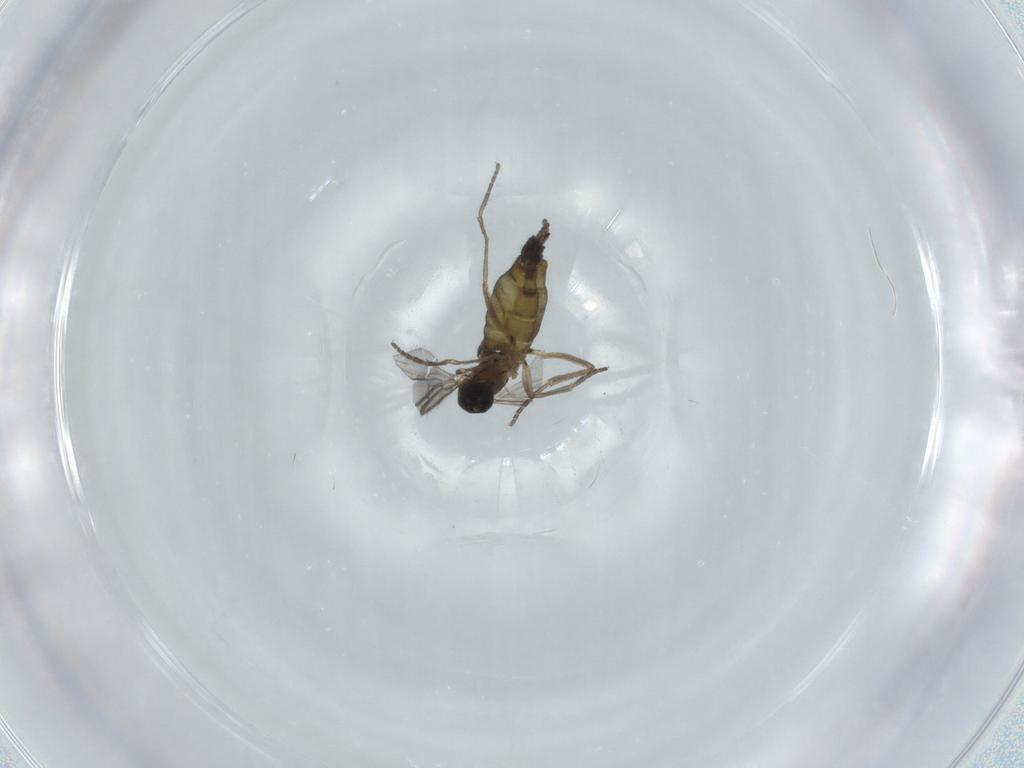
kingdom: Animalia
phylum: Arthropoda
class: Insecta
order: Diptera
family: Sciaridae
